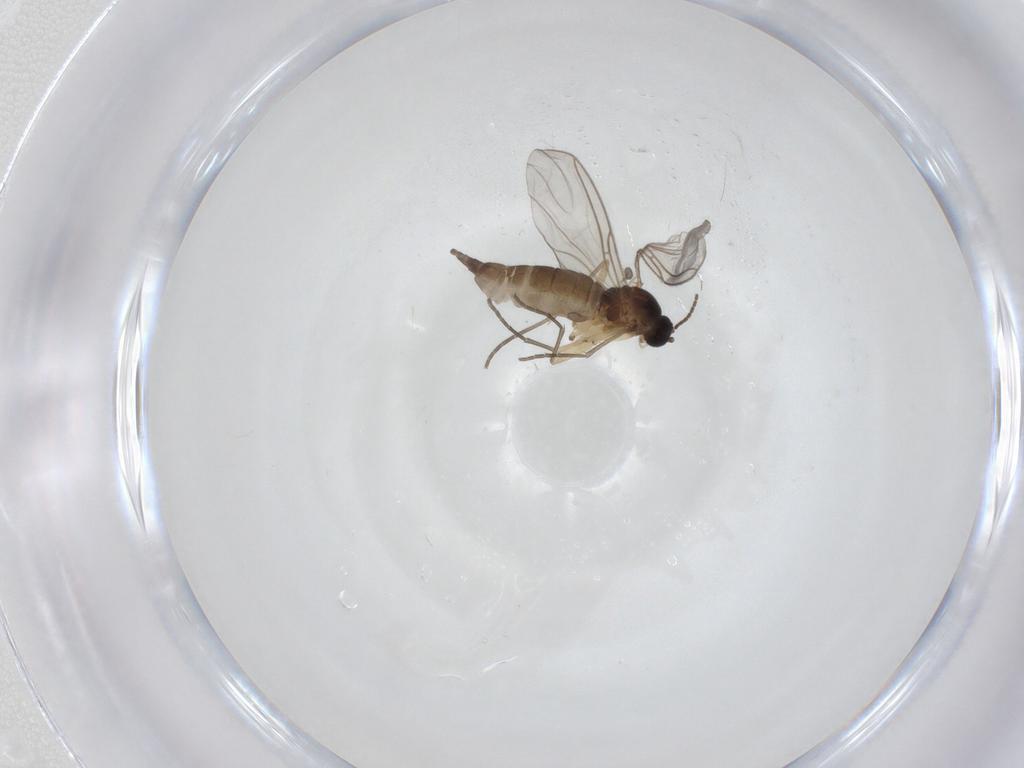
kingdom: Animalia
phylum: Arthropoda
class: Insecta
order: Diptera
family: Sciaridae
